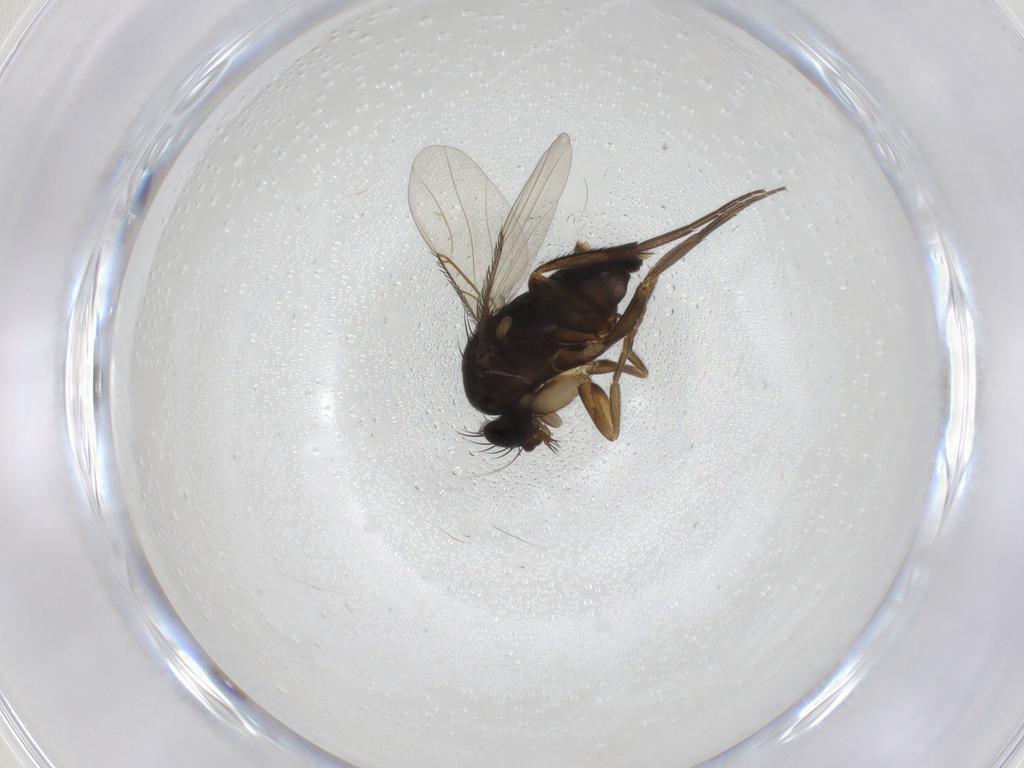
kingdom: Animalia
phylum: Arthropoda
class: Insecta
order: Diptera
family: Phoridae
